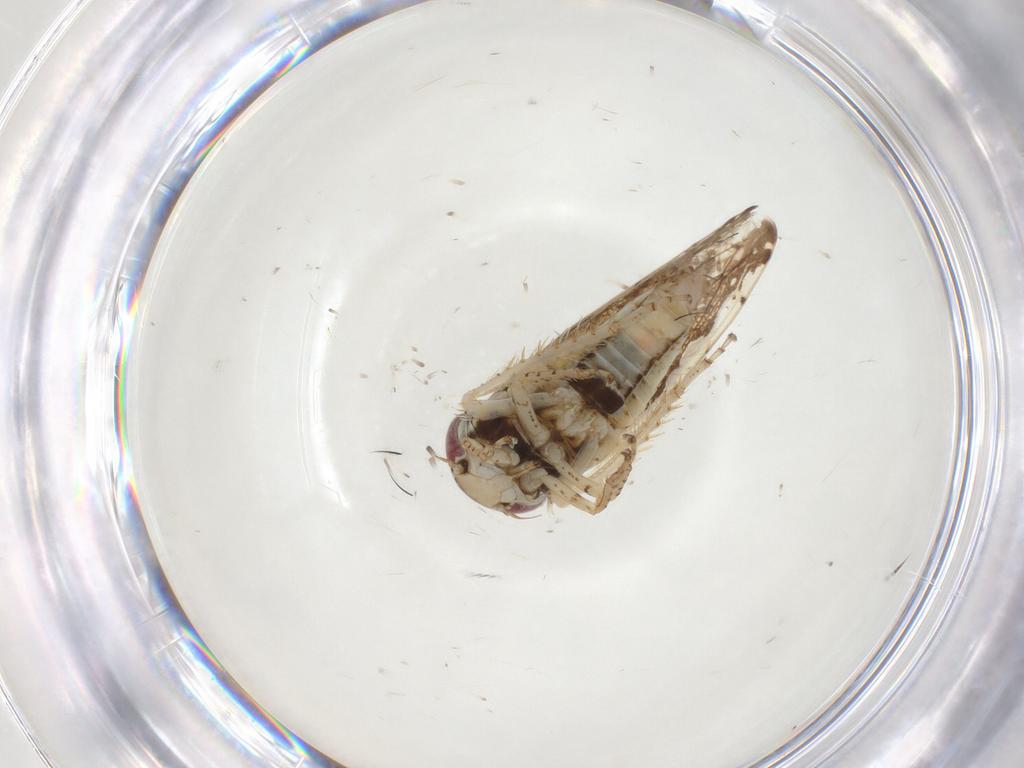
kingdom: Animalia
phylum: Arthropoda
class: Insecta
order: Hemiptera
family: Cicadellidae
